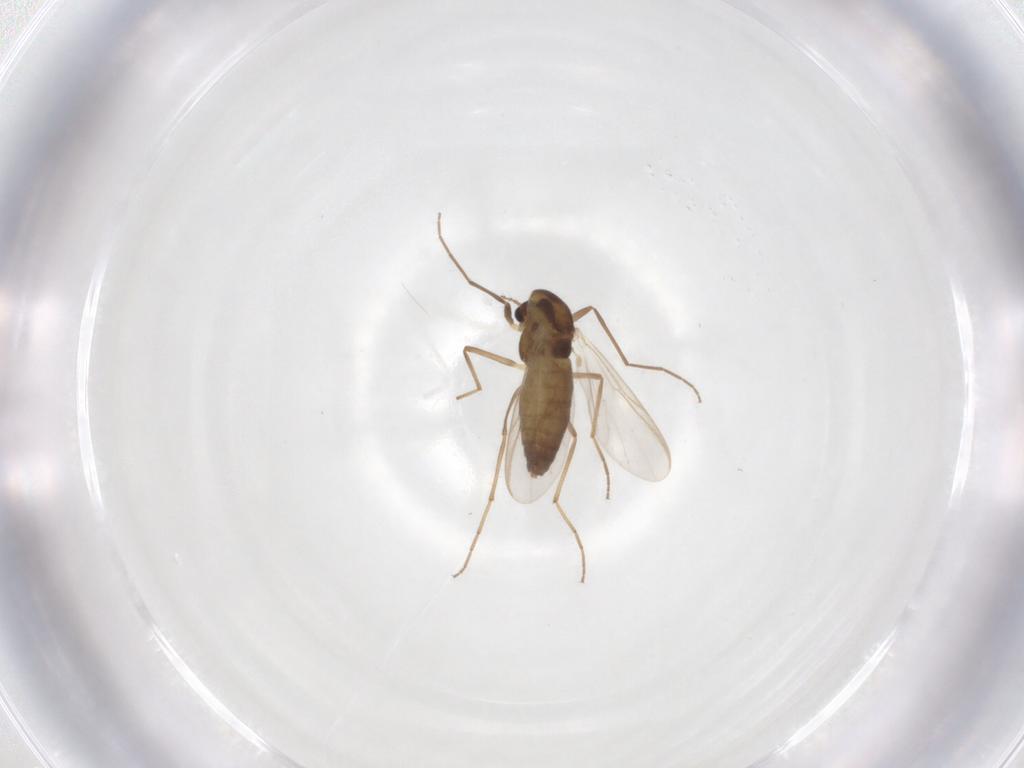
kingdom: Animalia
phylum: Arthropoda
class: Insecta
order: Diptera
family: Chironomidae
